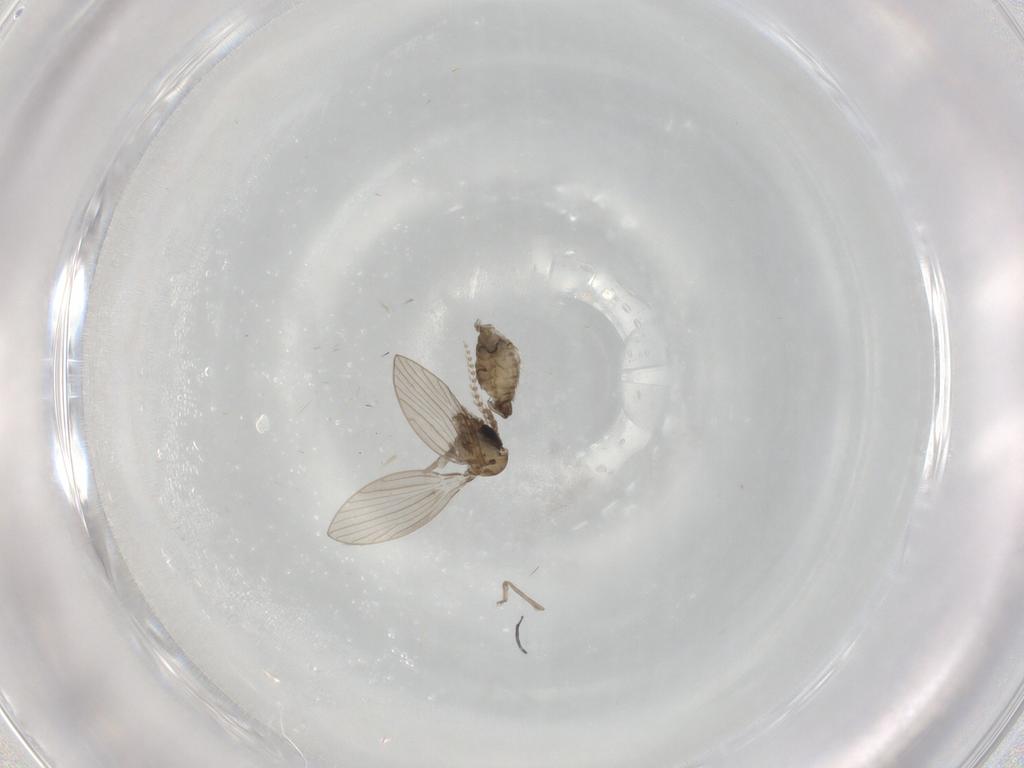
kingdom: Animalia
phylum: Arthropoda
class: Insecta
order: Diptera
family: Psychodidae
